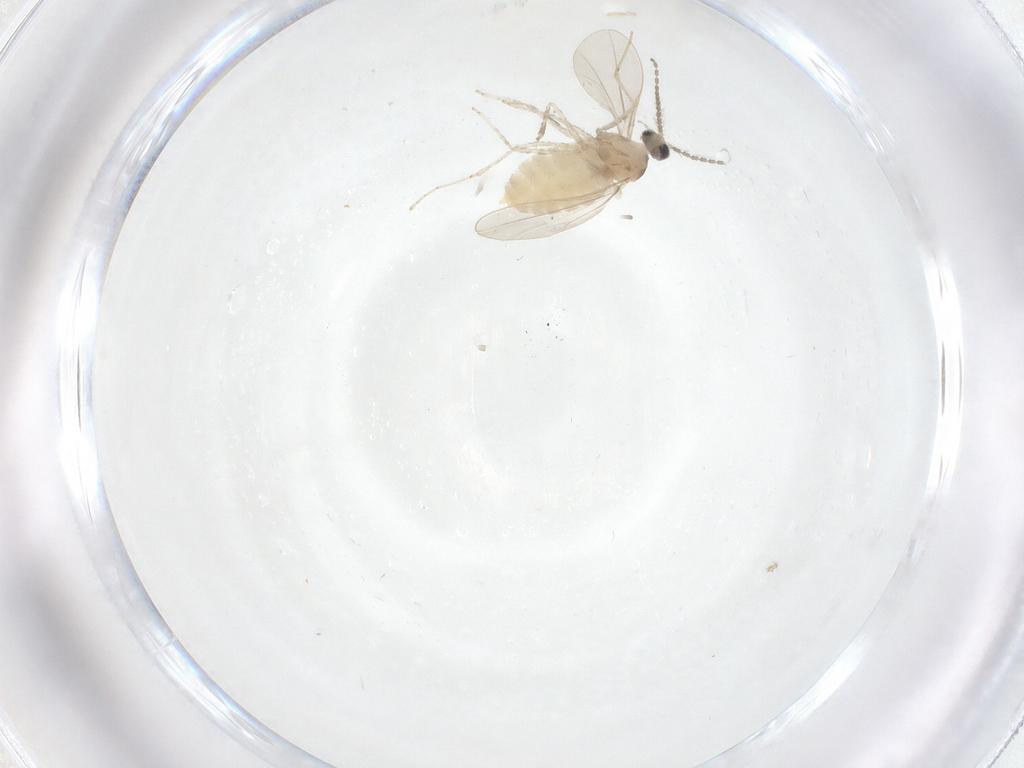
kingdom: Animalia
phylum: Arthropoda
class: Insecta
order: Diptera
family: Cecidomyiidae
